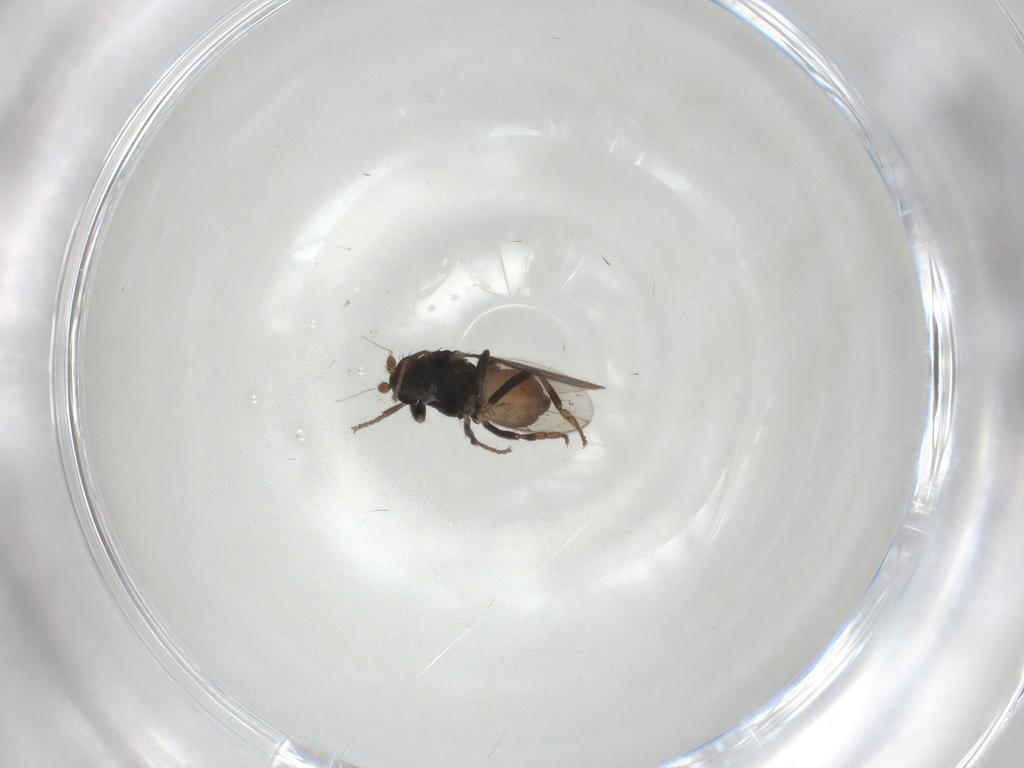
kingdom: Animalia
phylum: Arthropoda
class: Insecta
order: Diptera
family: Sphaeroceridae
